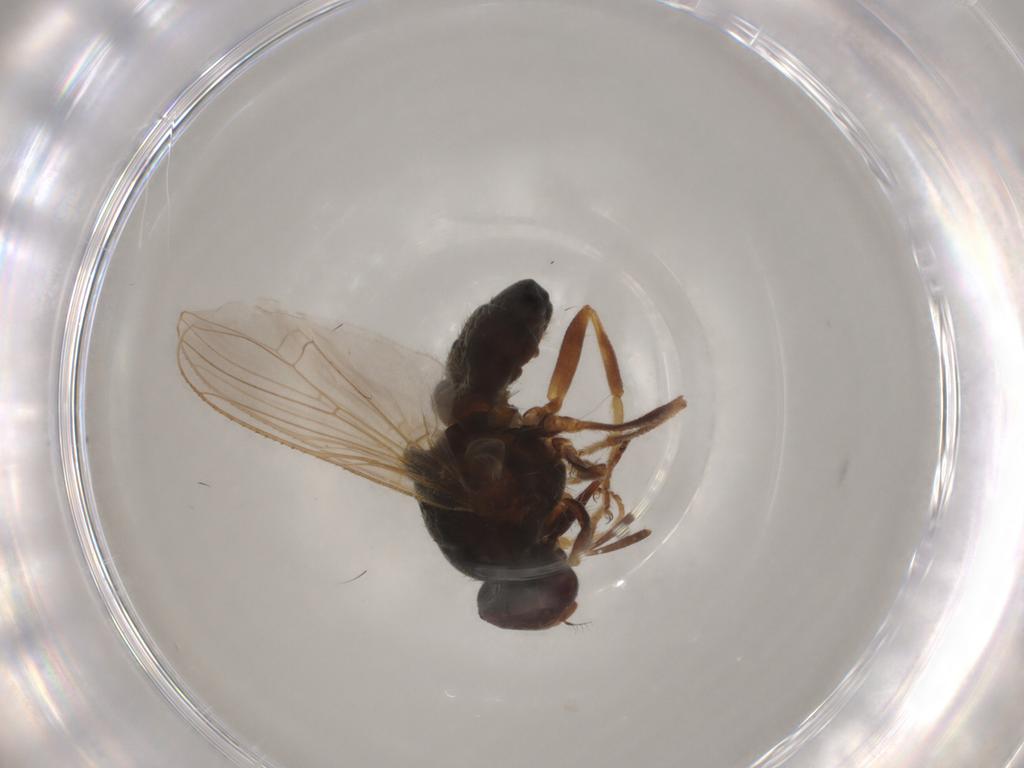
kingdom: Animalia
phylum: Arthropoda
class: Insecta
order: Diptera
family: Muscidae
